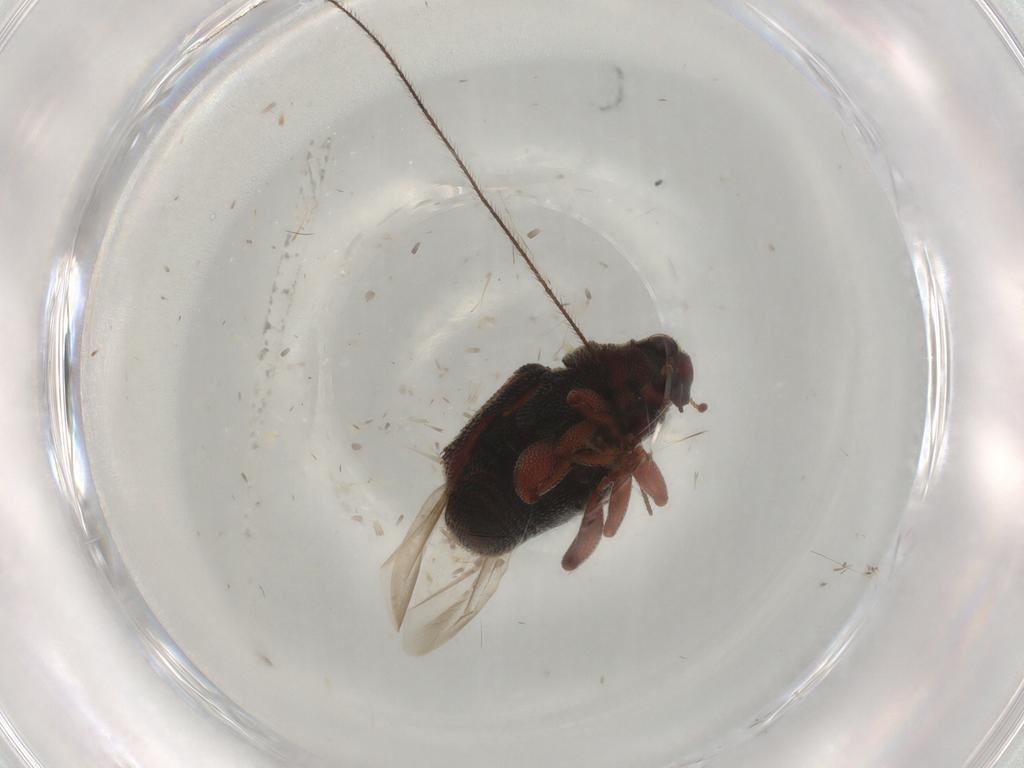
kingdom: Animalia
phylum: Arthropoda
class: Insecta
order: Coleoptera
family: Curculionidae
